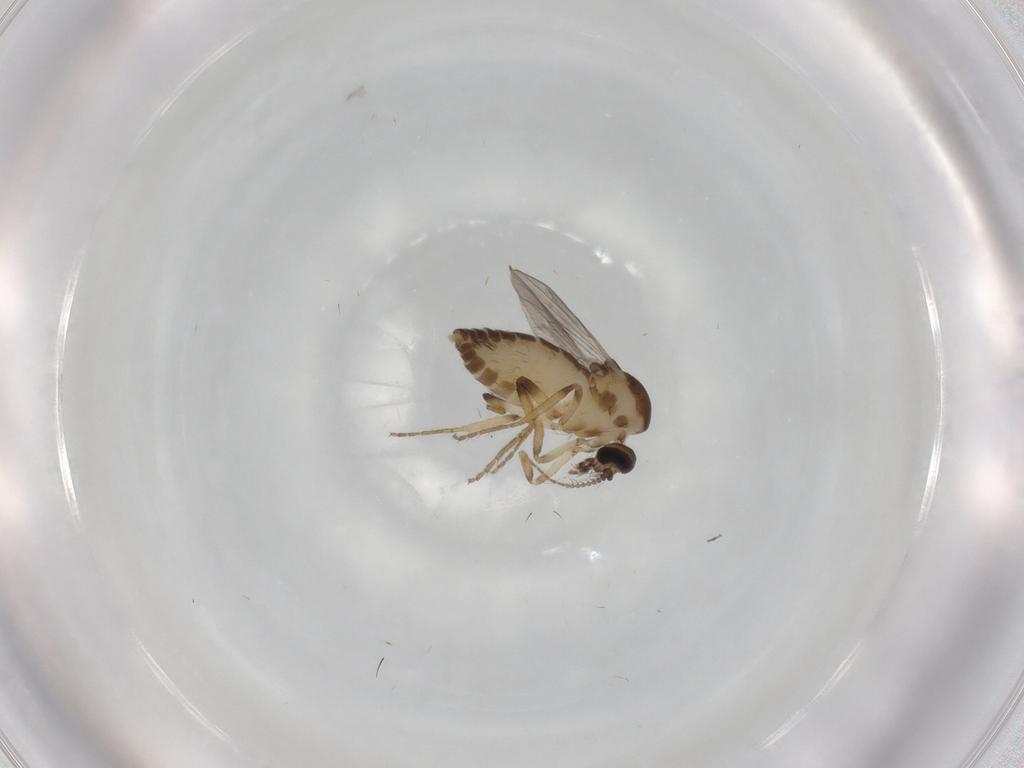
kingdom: Animalia
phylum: Arthropoda
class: Insecta
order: Diptera
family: Ceratopogonidae
